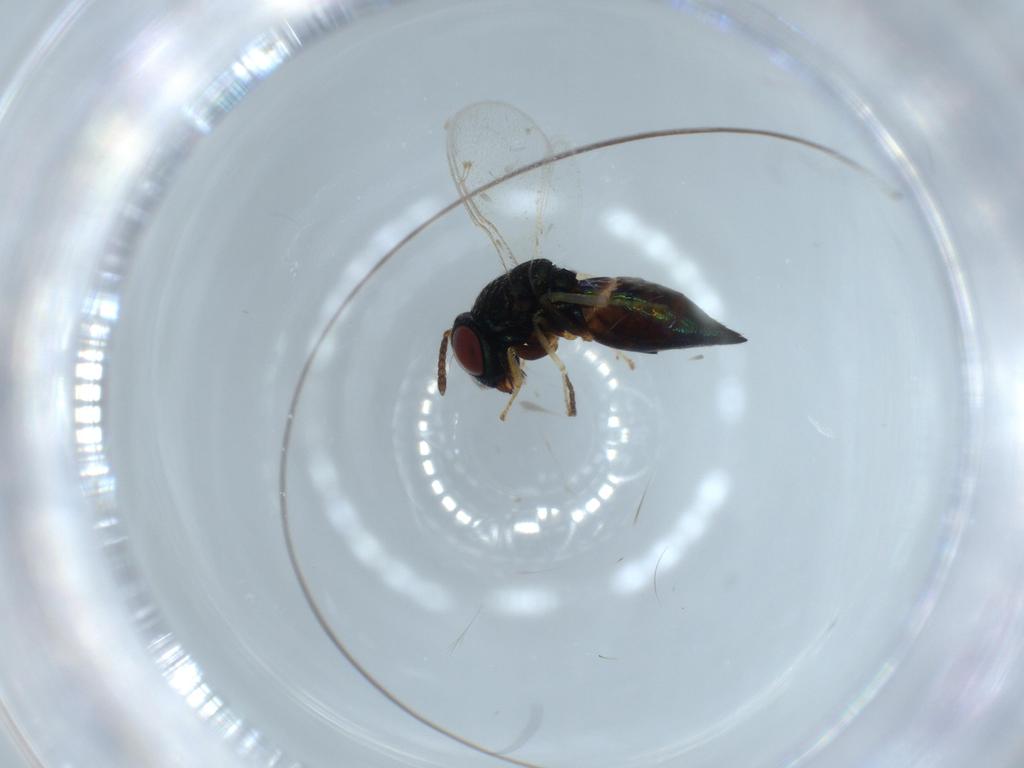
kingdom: Animalia
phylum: Arthropoda
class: Insecta
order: Hymenoptera
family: Pteromalidae
